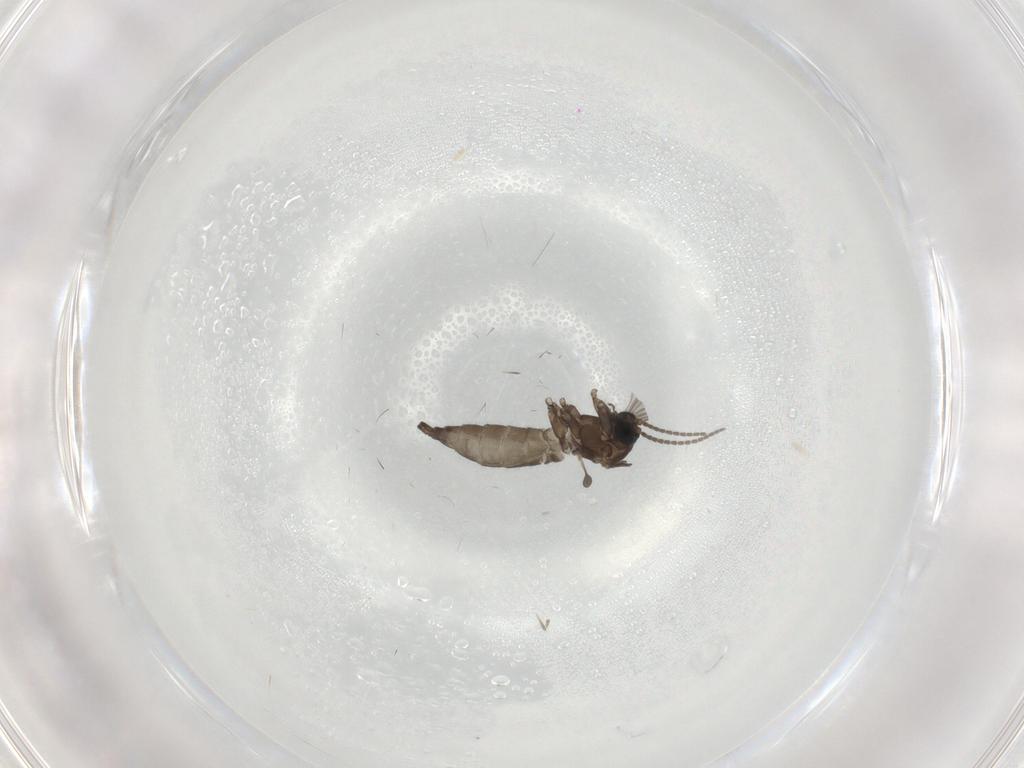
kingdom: Animalia
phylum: Arthropoda
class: Insecta
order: Diptera
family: Sciaridae
